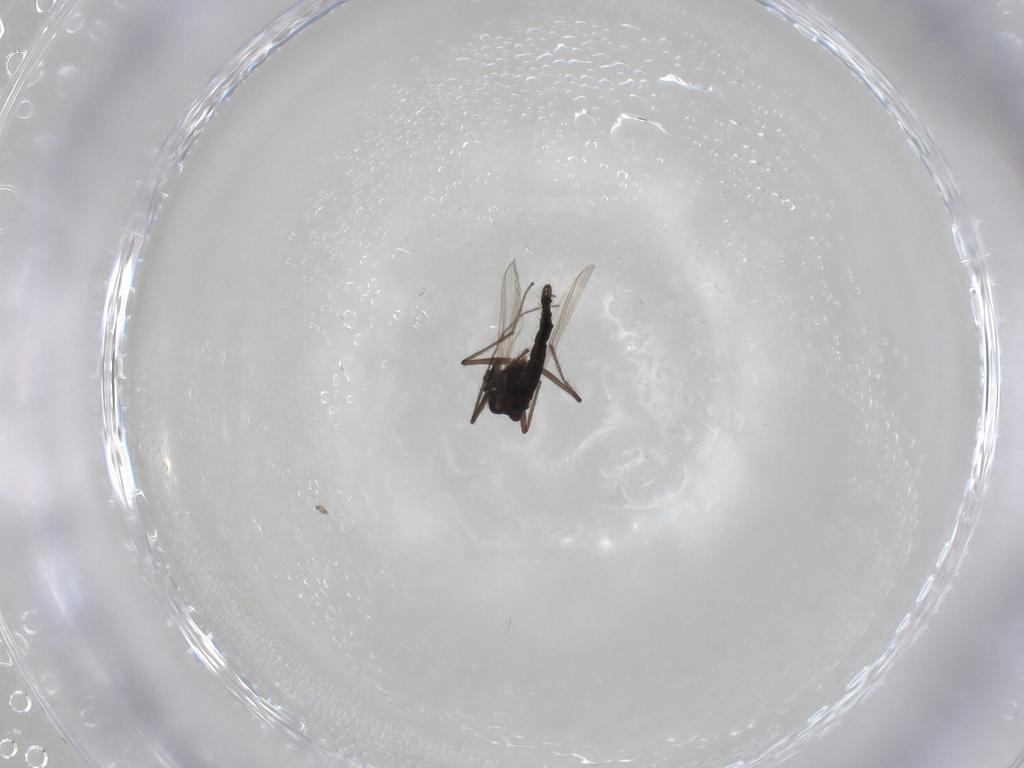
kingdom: Animalia
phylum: Arthropoda
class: Insecta
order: Diptera
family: Chironomidae
